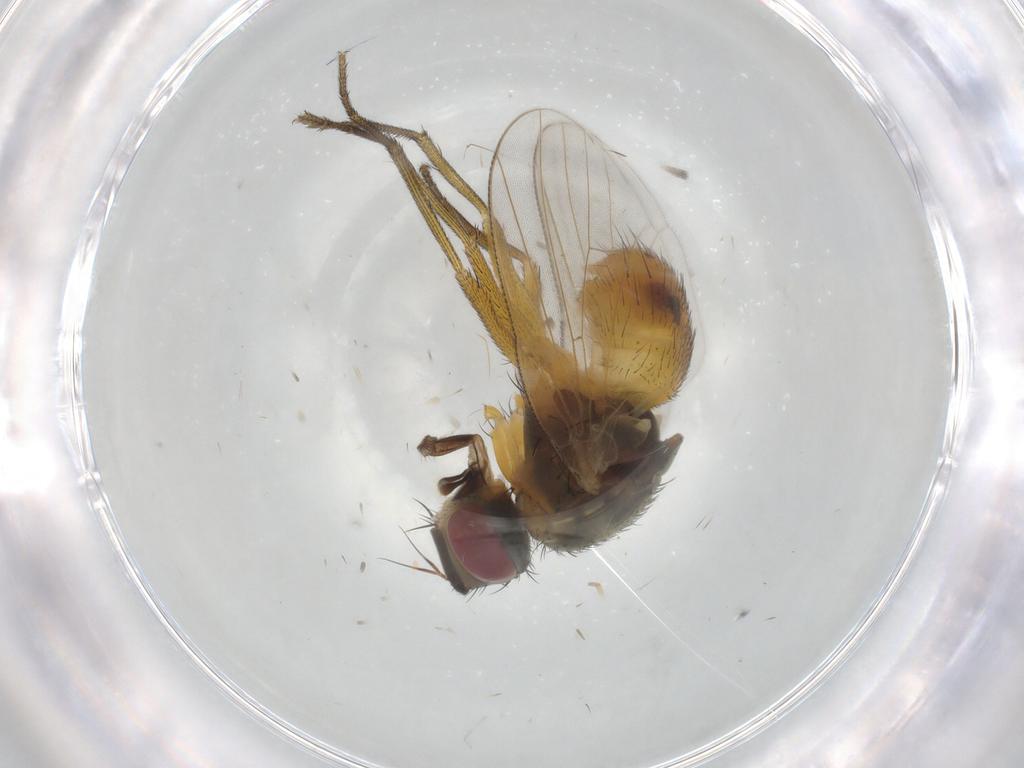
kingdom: Animalia
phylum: Arthropoda
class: Insecta
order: Diptera
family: Muscidae
